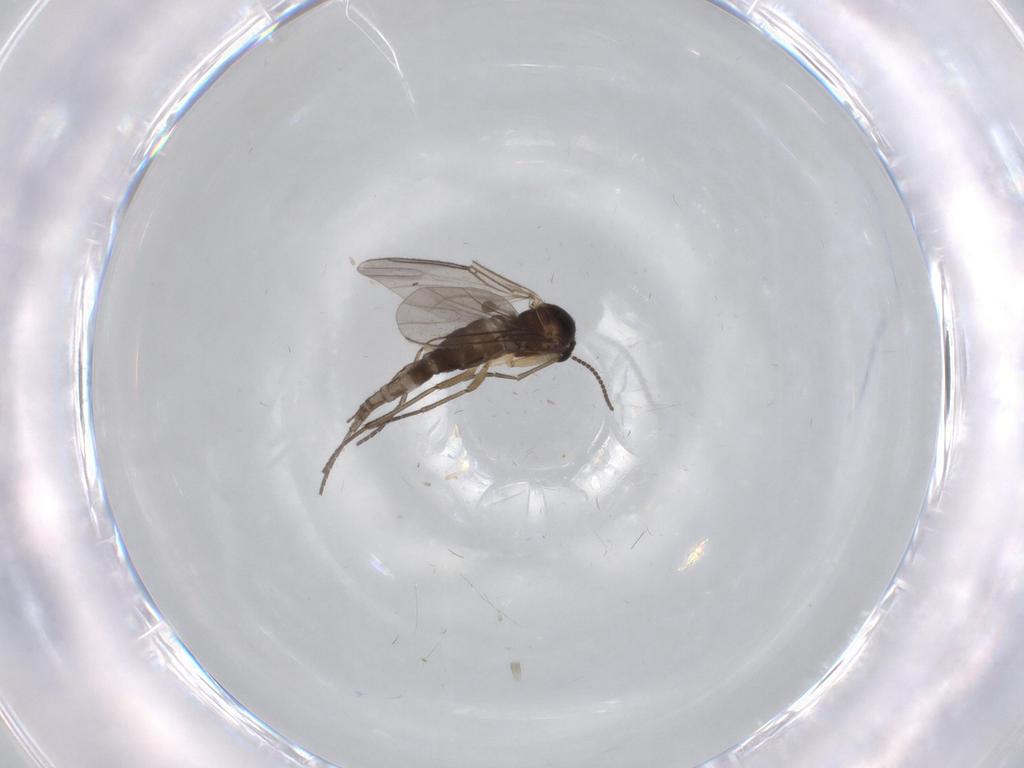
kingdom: Animalia
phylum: Arthropoda
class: Insecta
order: Diptera
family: Sciaridae
